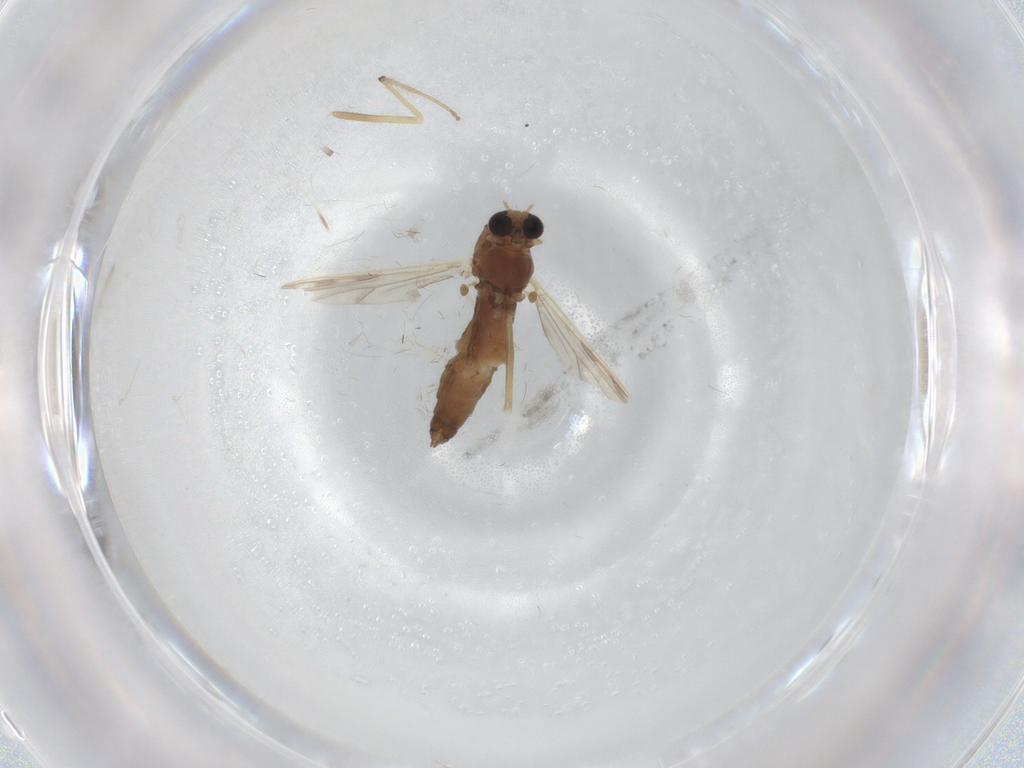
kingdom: Animalia
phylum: Arthropoda
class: Insecta
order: Diptera
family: Chironomidae
